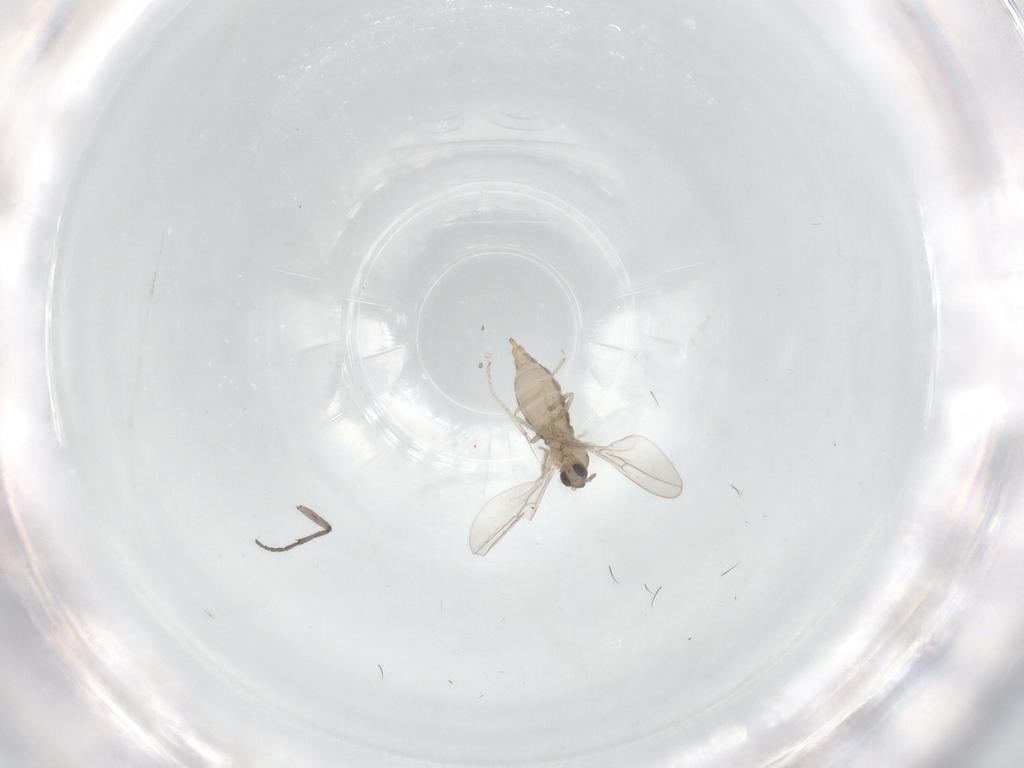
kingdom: Animalia
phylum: Arthropoda
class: Insecta
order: Diptera
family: Cecidomyiidae
